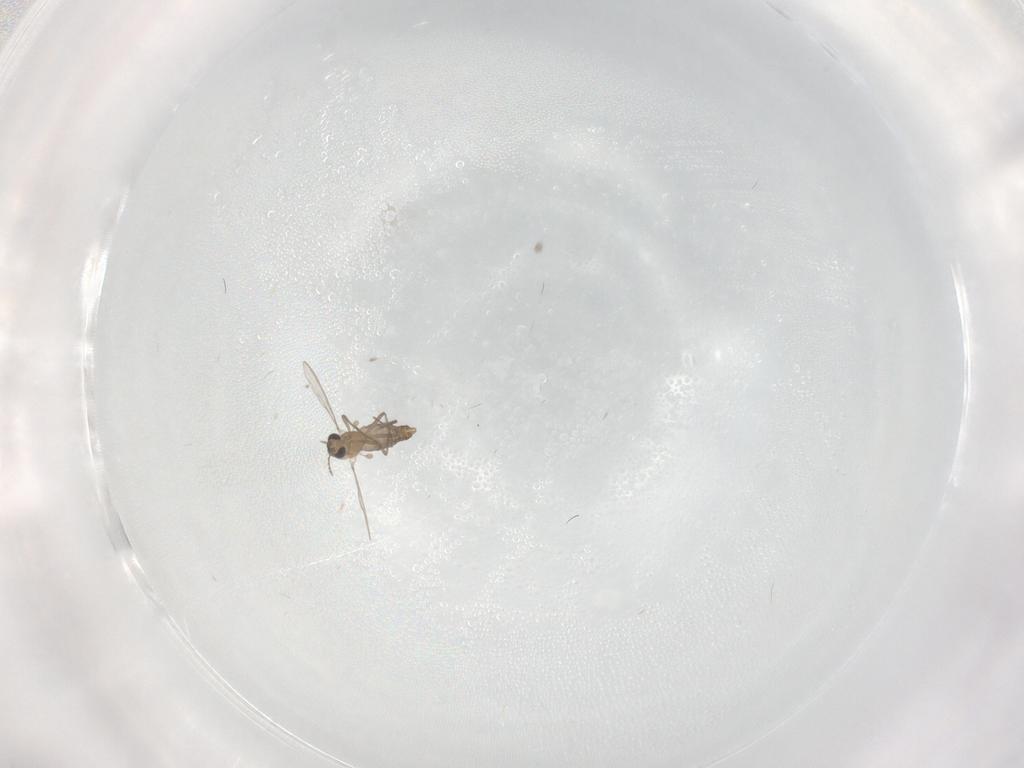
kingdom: Animalia
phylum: Arthropoda
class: Insecta
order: Diptera
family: Chironomidae
